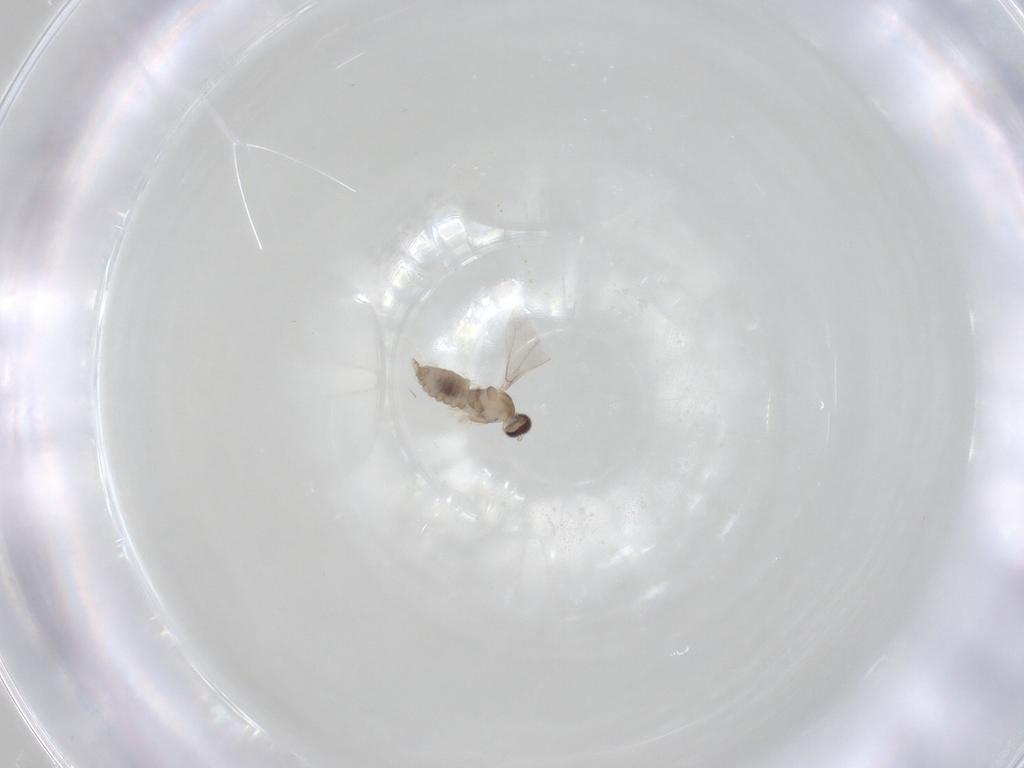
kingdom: Animalia
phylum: Arthropoda
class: Insecta
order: Diptera
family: Cecidomyiidae
